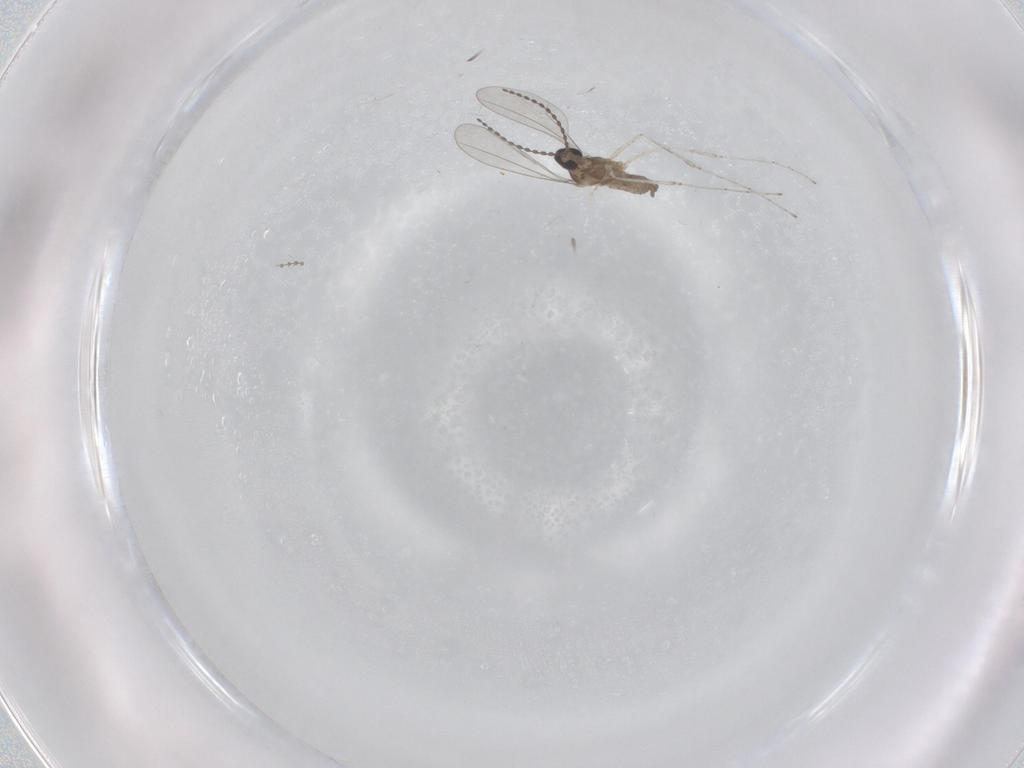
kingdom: Animalia
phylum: Arthropoda
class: Insecta
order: Diptera
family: Cecidomyiidae
